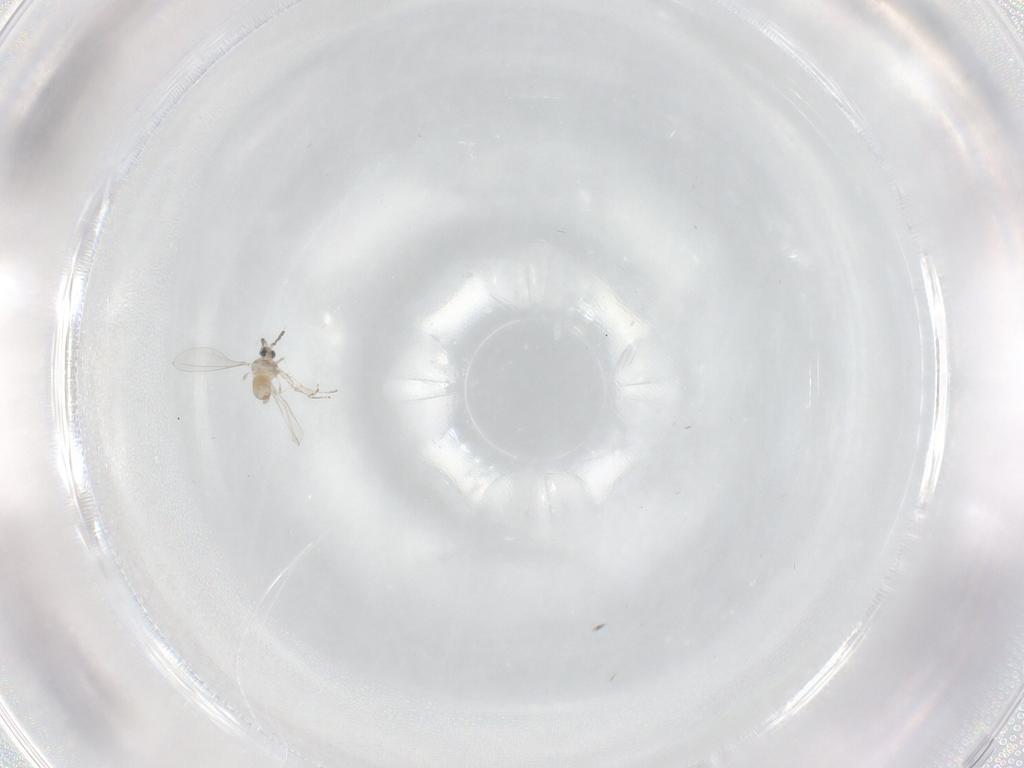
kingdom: Animalia
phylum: Arthropoda
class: Insecta
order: Diptera
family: Cecidomyiidae
